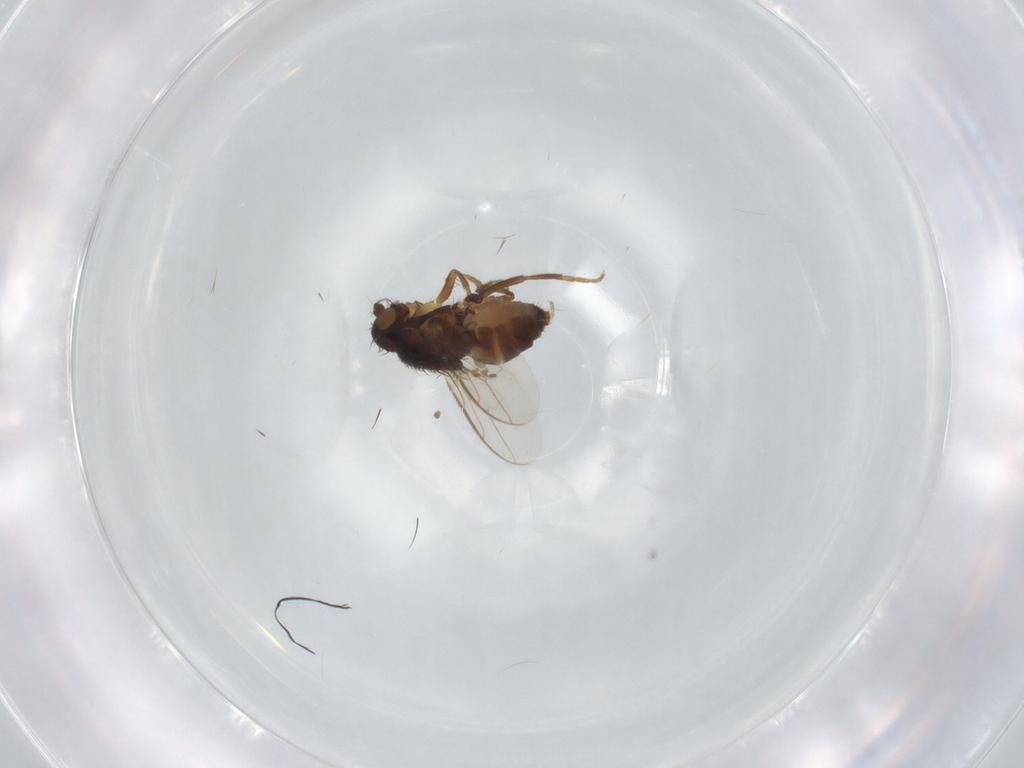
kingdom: Animalia
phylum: Arthropoda
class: Insecta
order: Diptera
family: Sphaeroceridae
